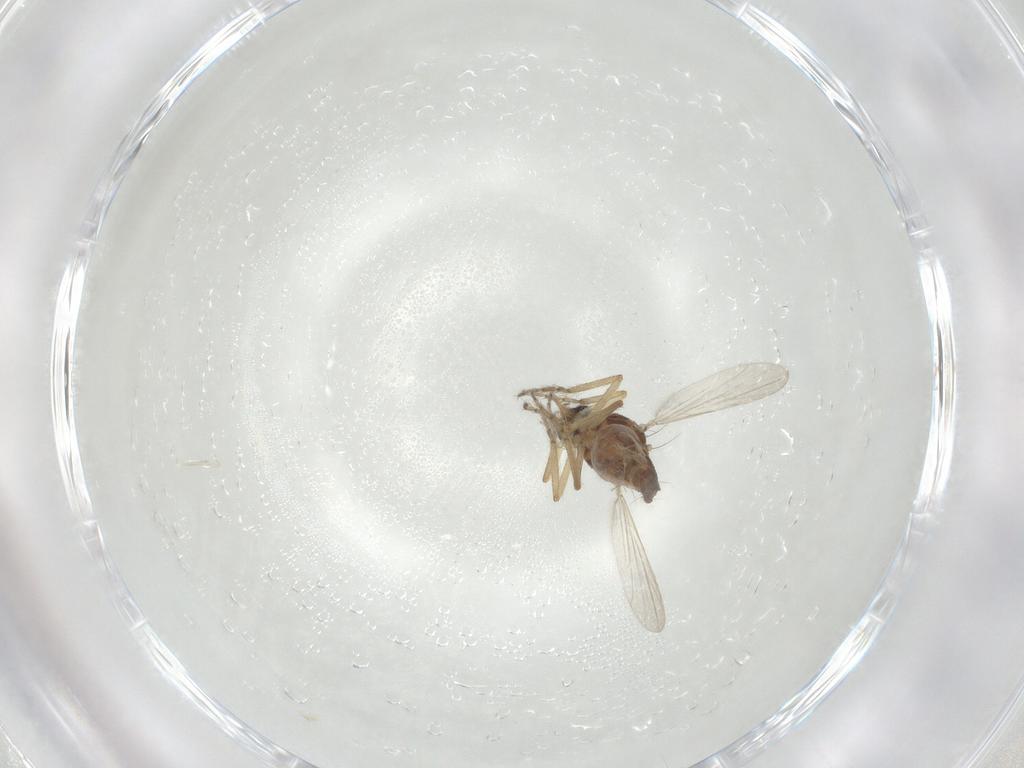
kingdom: Animalia
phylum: Arthropoda
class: Insecta
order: Diptera
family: Ceratopogonidae
